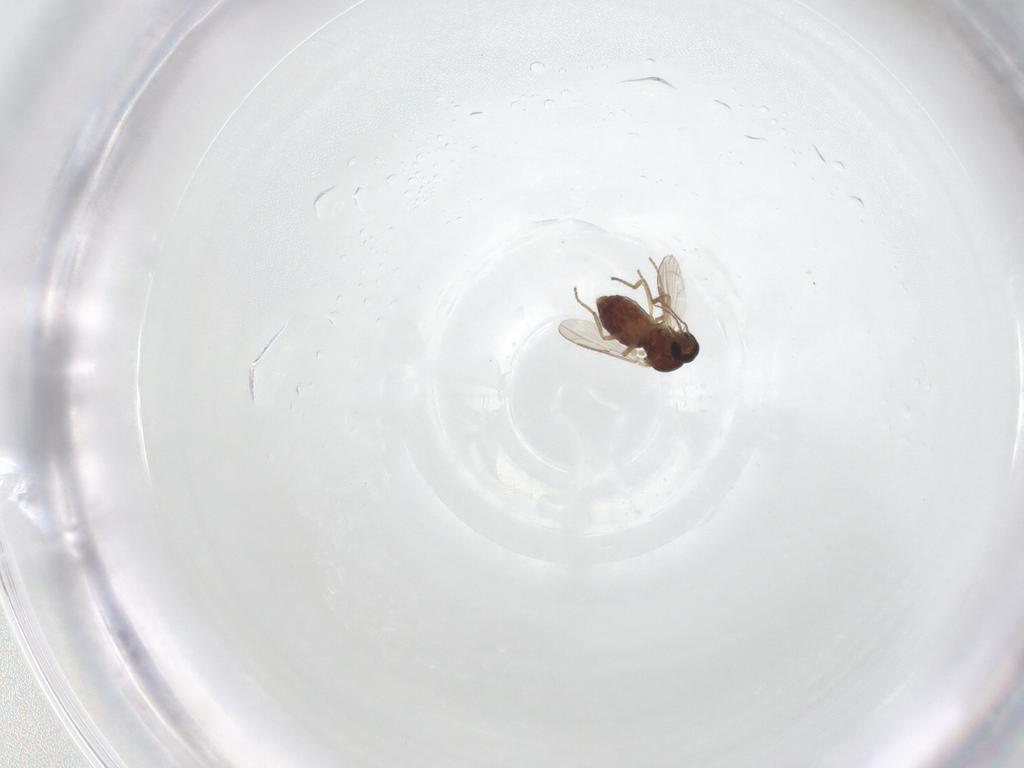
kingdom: Animalia
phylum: Arthropoda
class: Insecta
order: Diptera
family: Ceratopogonidae
